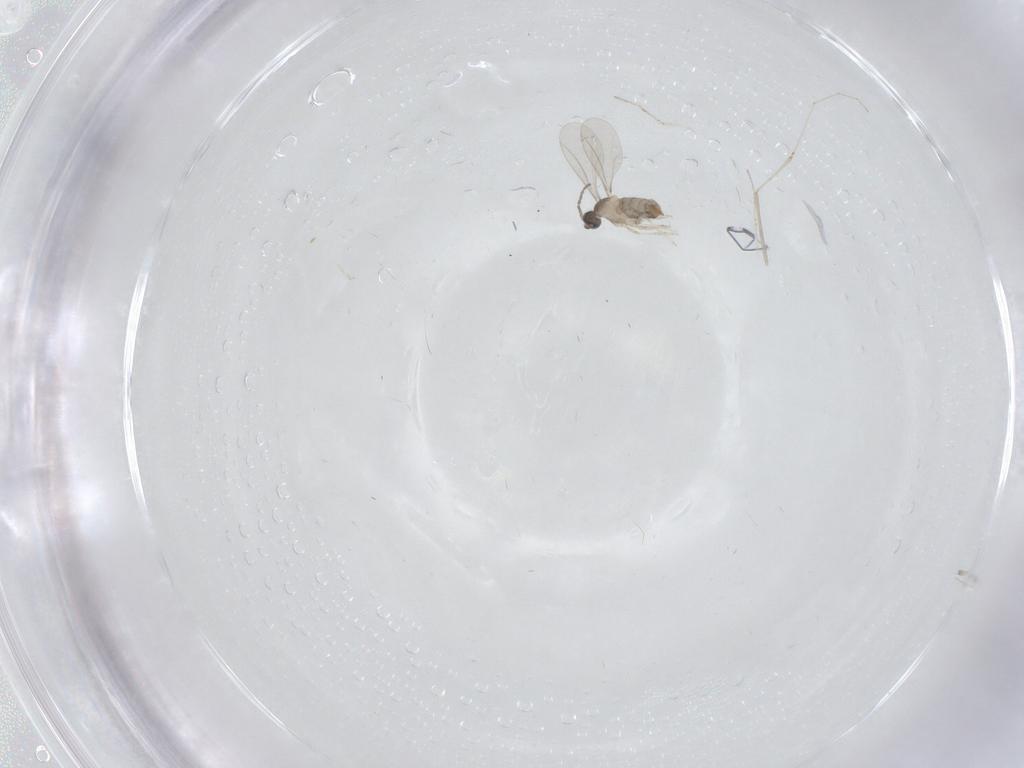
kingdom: Animalia
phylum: Arthropoda
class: Insecta
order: Diptera
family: Cecidomyiidae
